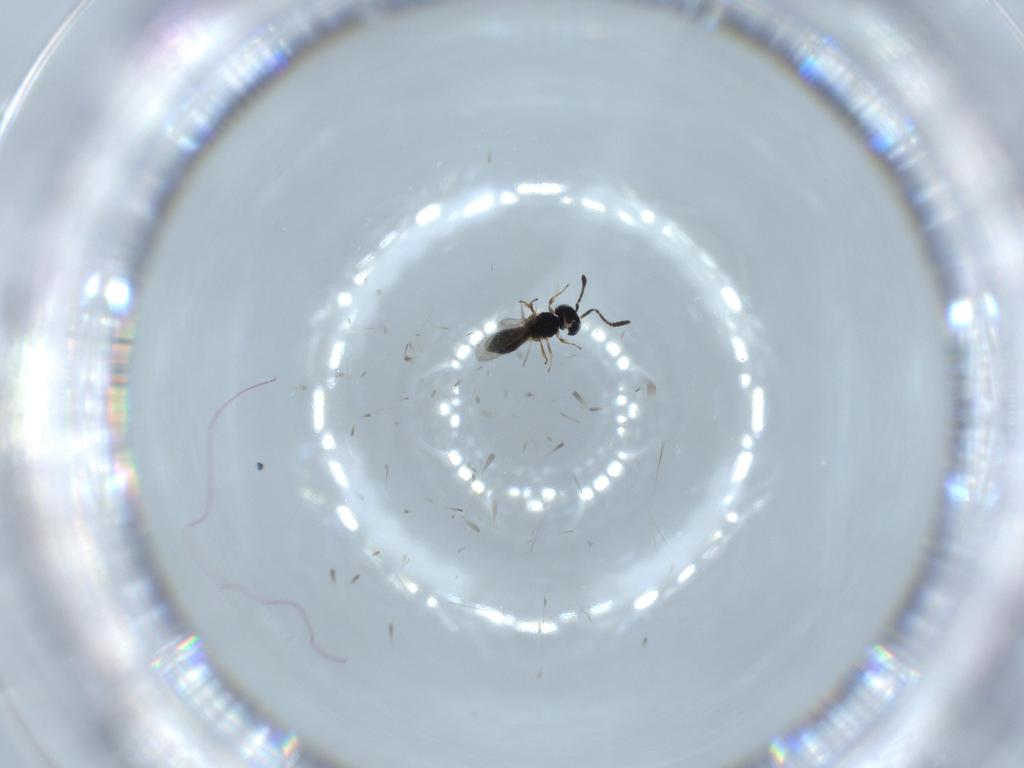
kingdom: Animalia
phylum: Arthropoda
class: Insecta
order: Hymenoptera
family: Scelionidae
